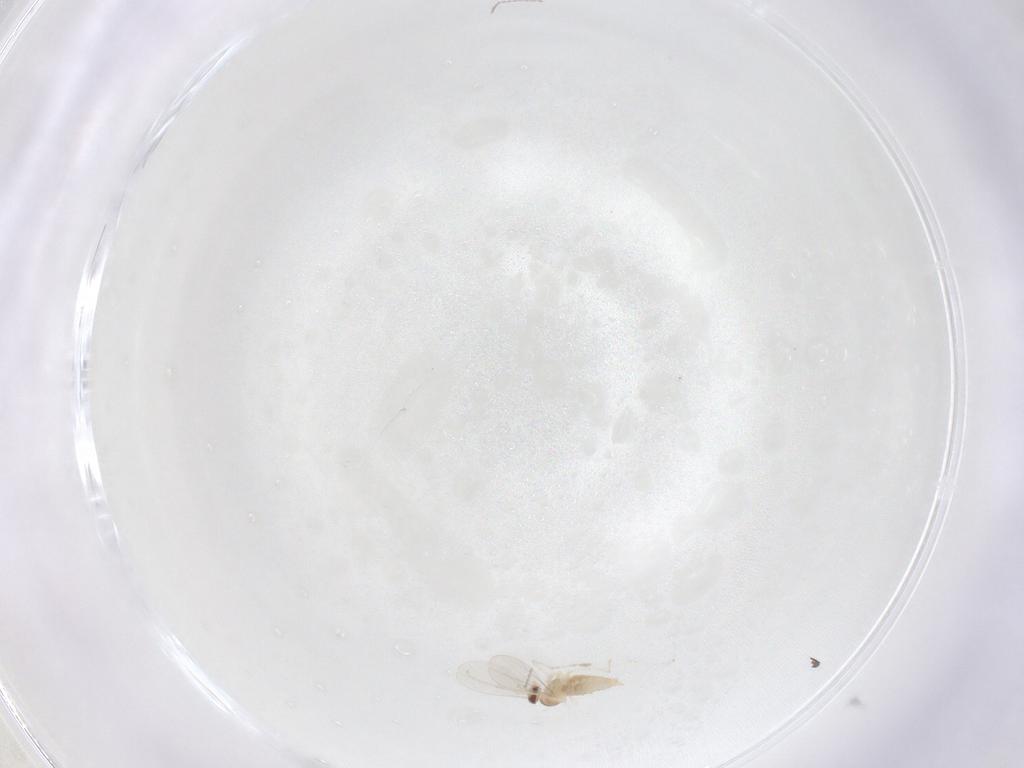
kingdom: Animalia
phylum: Arthropoda
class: Insecta
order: Diptera
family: Cecidomyiidae
